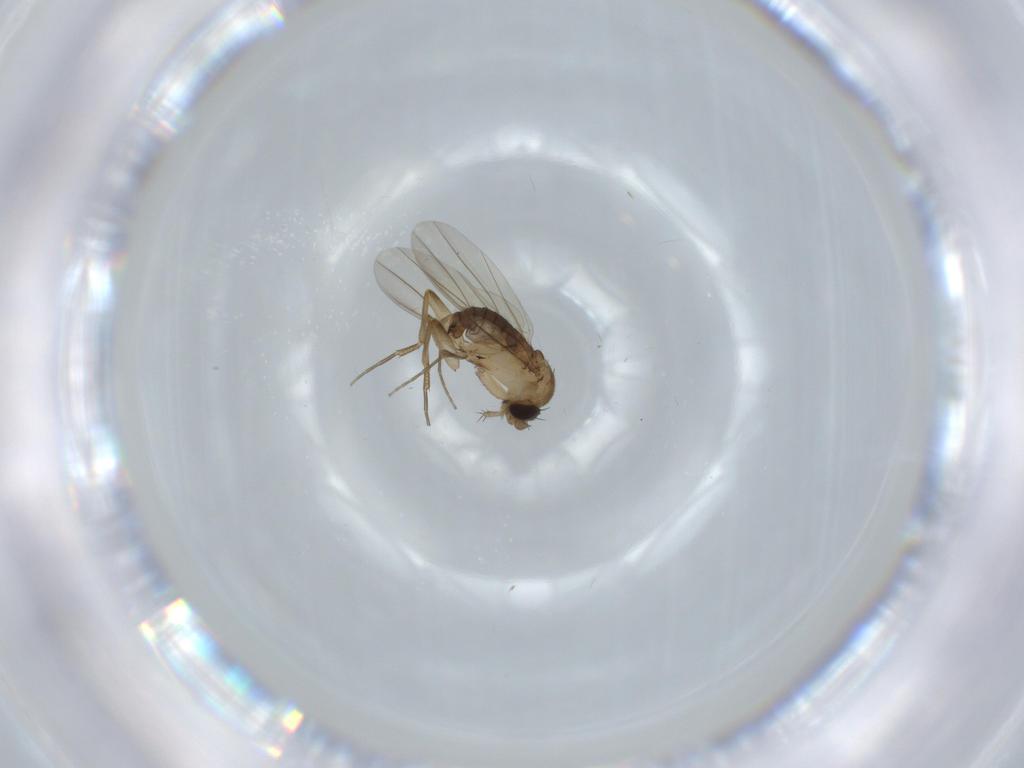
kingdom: Animalia
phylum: Arthropoda
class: Insecta
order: Diptera
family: Phoridae
